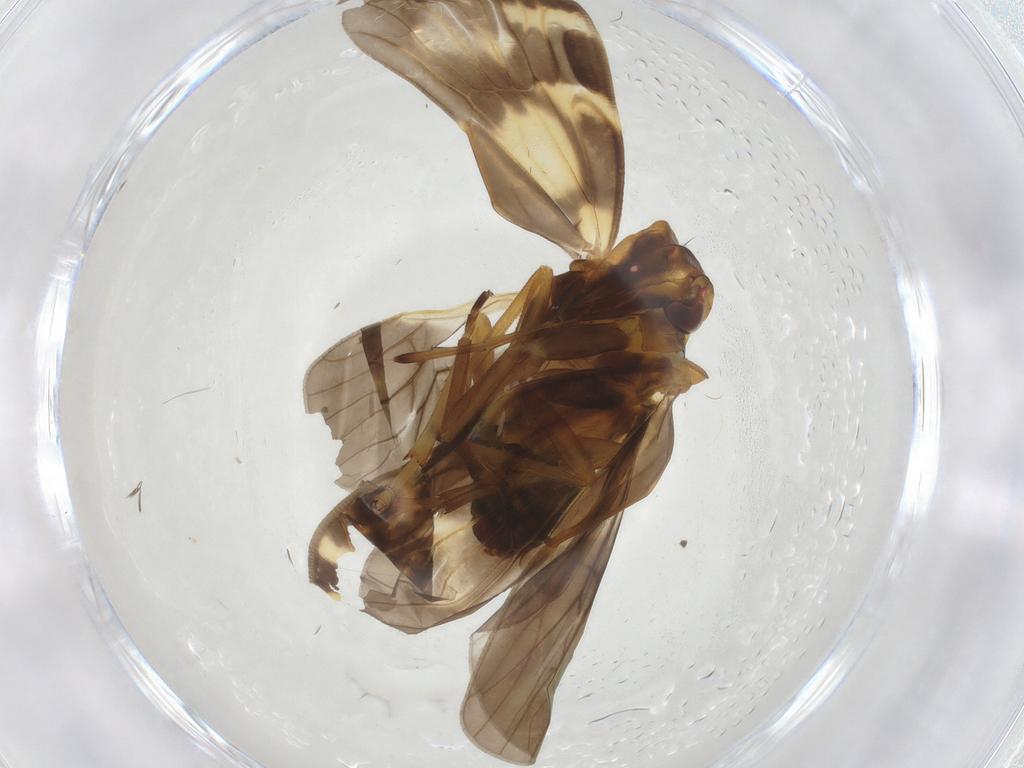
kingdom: Animalia
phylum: Arthropoda
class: Insecta
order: Hemiptera
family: Cixiidae
